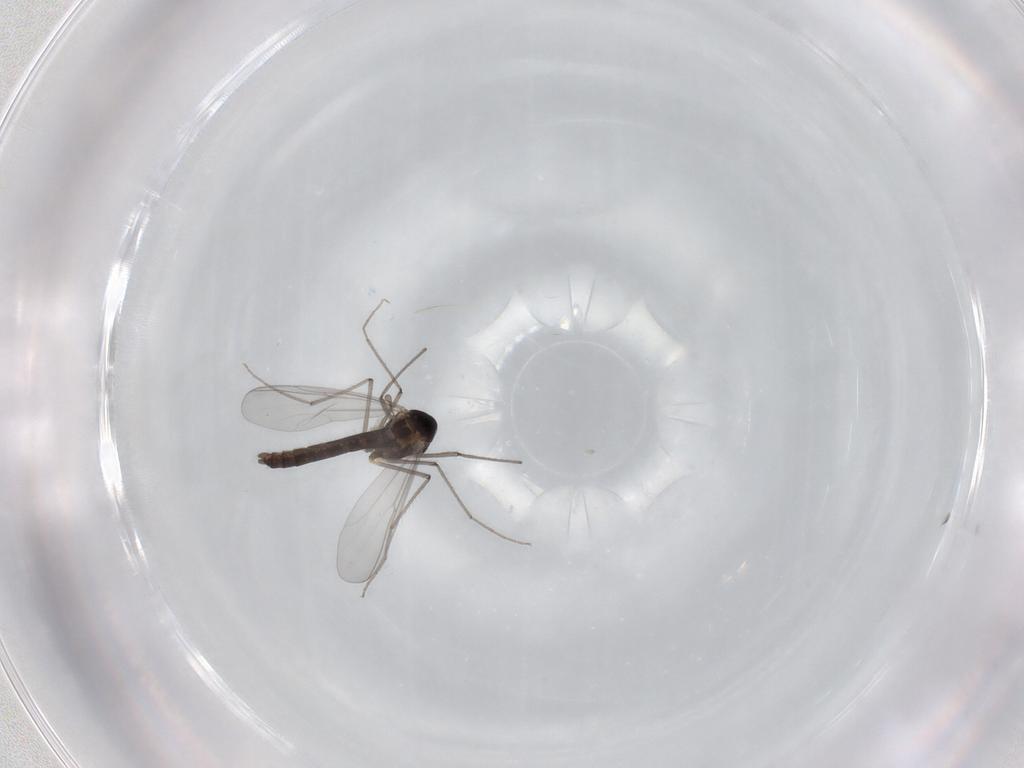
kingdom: Animalia
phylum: Arthropoda
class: Insecta
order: Diptera
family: Chironomidae
